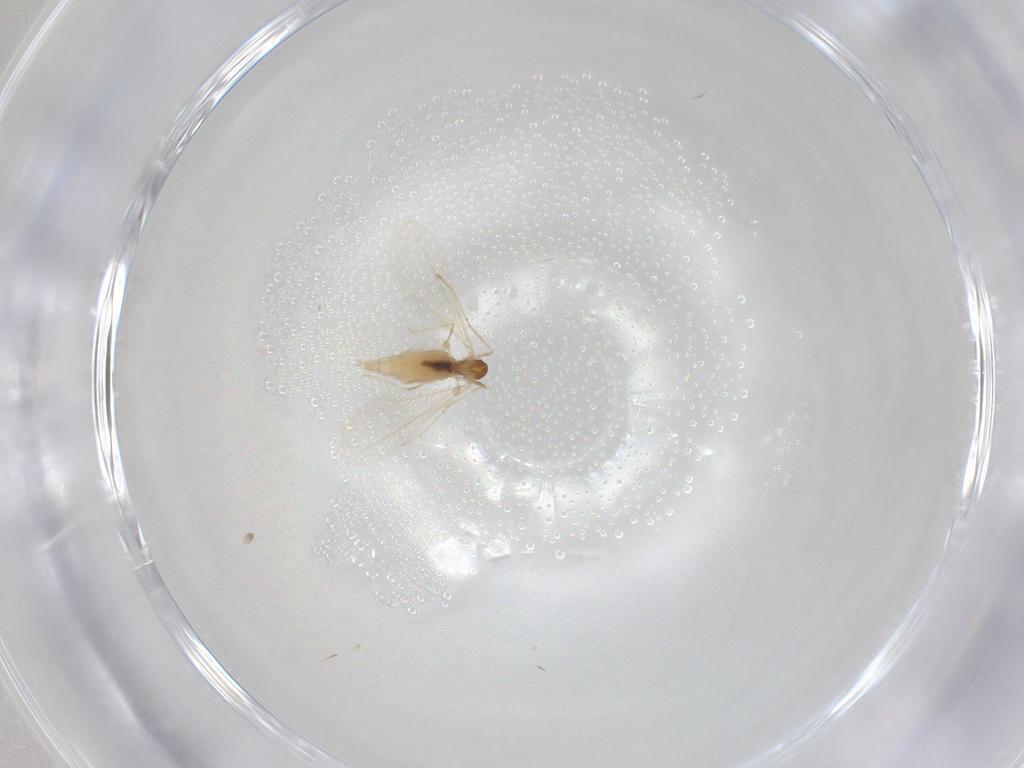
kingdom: Animalia
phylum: Arthropoda
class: Insecta
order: Diptera
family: Cecidomyiidae
